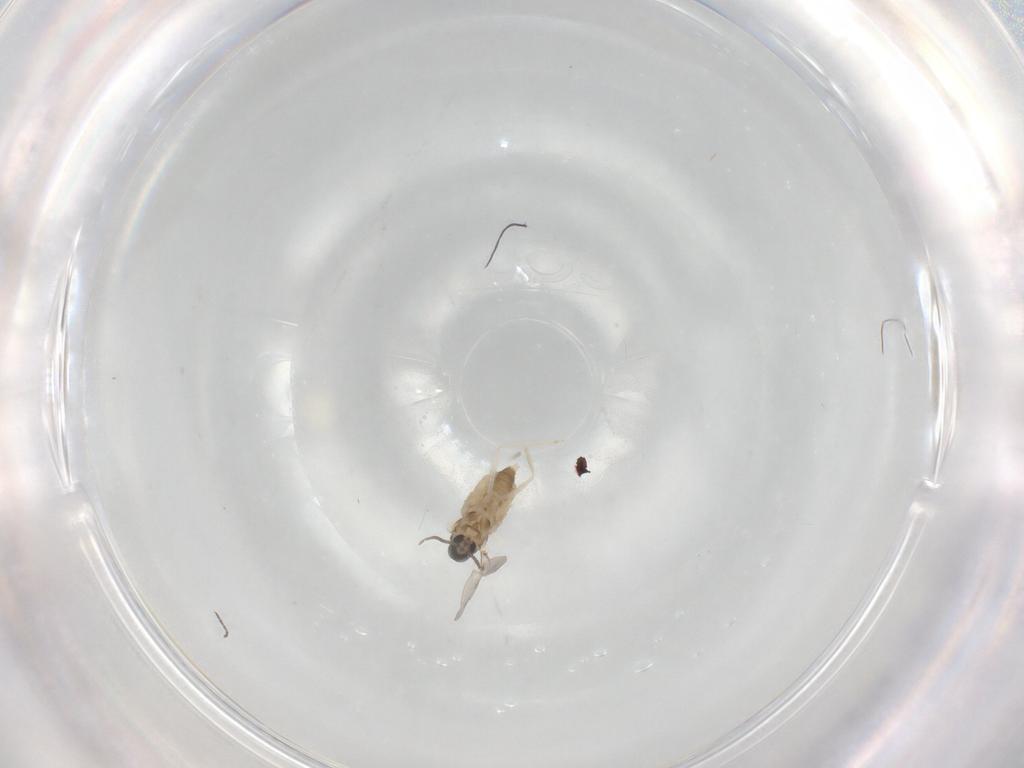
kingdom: Animalia
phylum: Arthropoda
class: Insecta
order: Diptera
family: Cecidomyiidae
